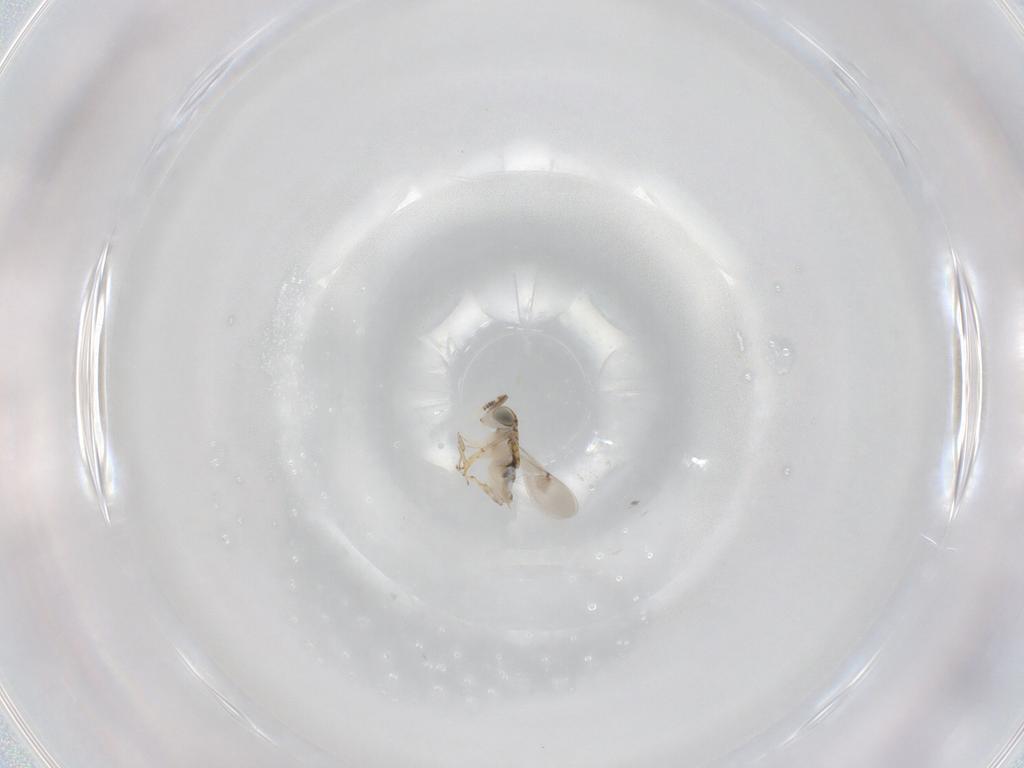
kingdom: Animalia
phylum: Arthropoda
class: Insecta
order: Hymenoptera
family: Encyrtidae
